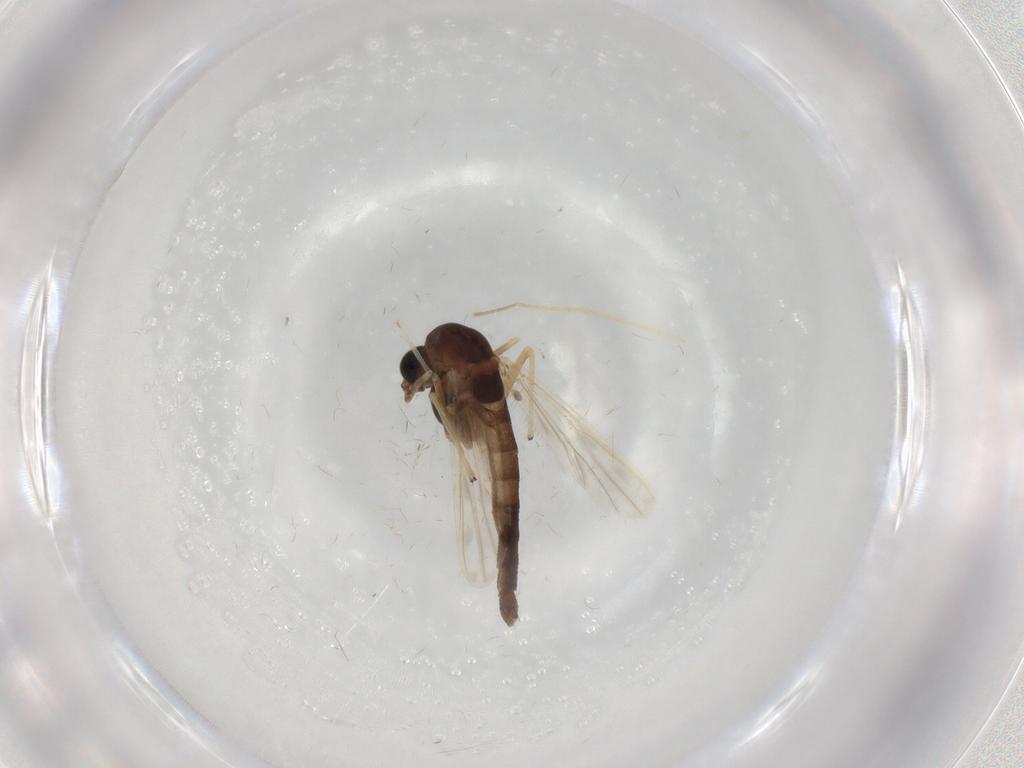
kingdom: Animalia
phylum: Arthropoda
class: Insecta
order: Diptera
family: Chironomidae
